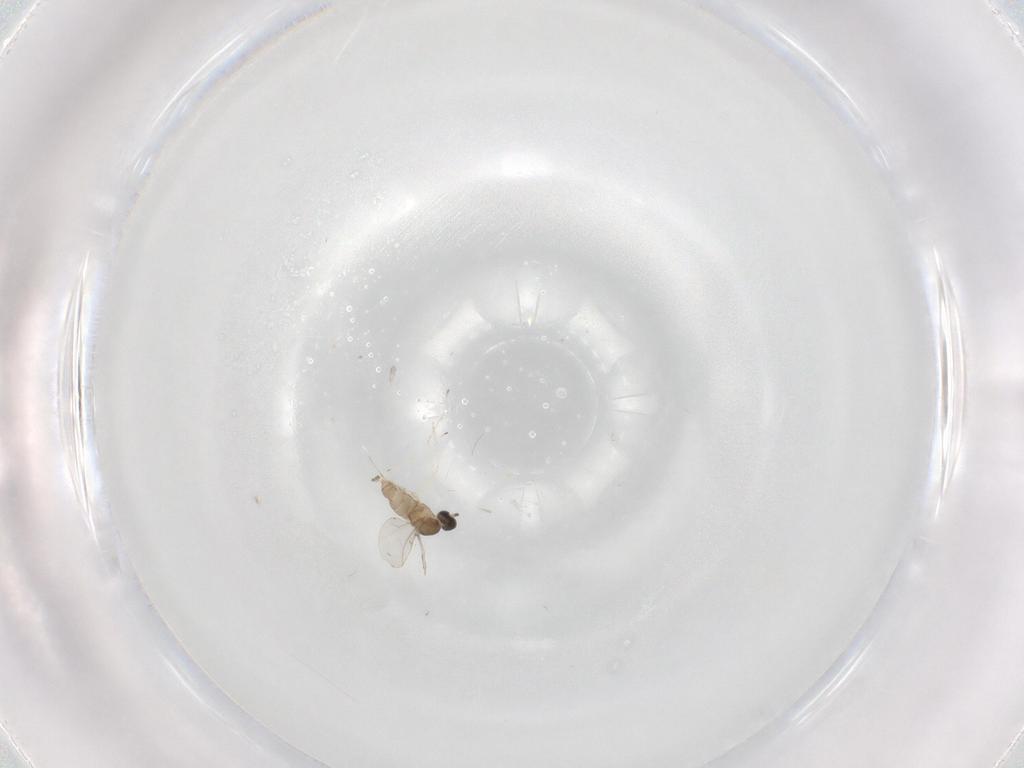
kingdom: Animalia
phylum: Arthropoda
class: Insecta
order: Diptera
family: Cecidomyiidae
